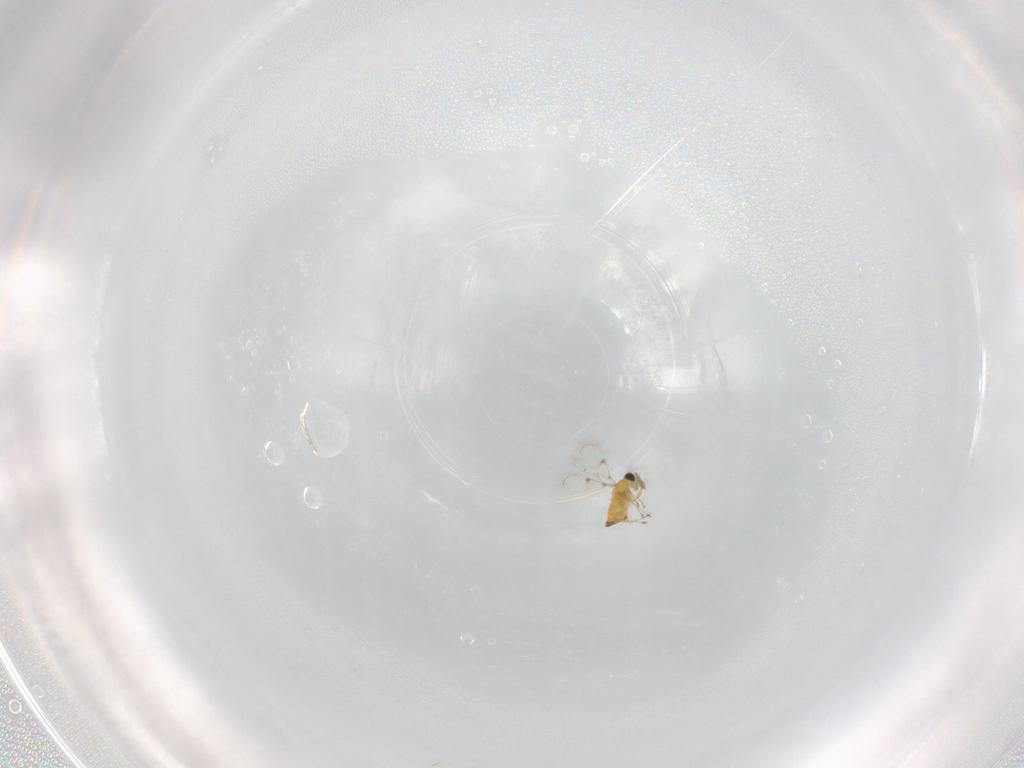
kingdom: Animalia
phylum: Arthropoda
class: Insecta
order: Hymenoptera
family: Trichogrammatidae
